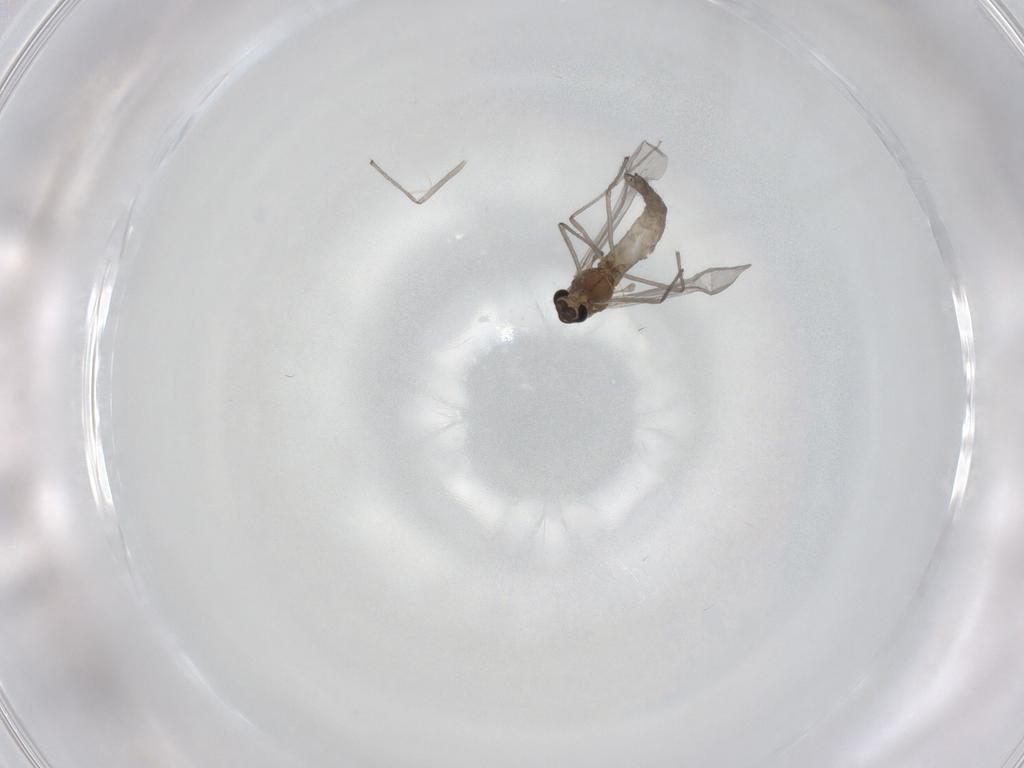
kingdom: Animalia
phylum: Arthropoda
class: Insecta
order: Diptera
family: Chironomidae
